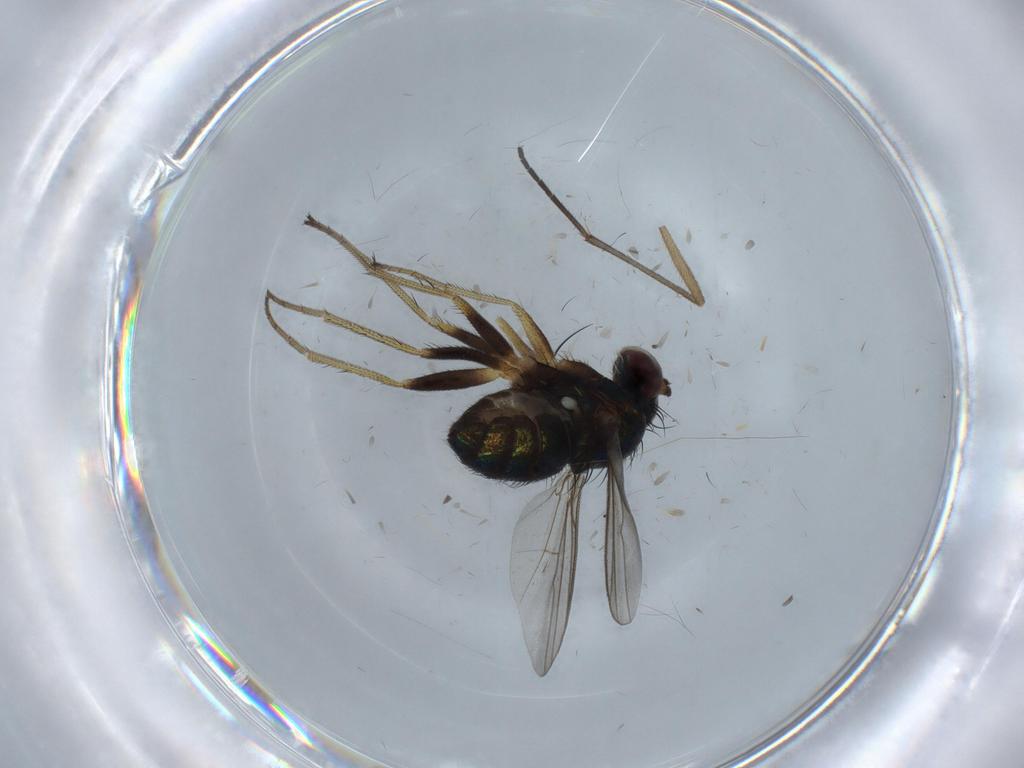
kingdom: Animalia
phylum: Arthropoda
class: Insecta
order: Diptera
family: Sciaridae
